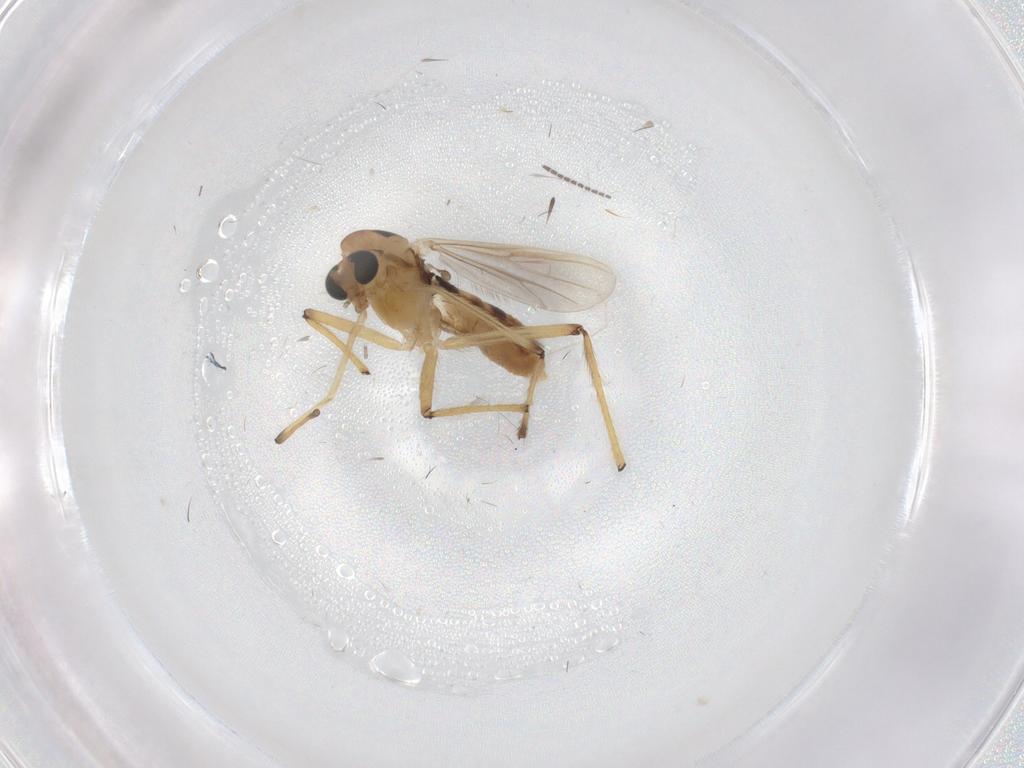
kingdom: Animalia
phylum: Arthropoda
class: Insecta
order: Diptera
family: Chironomidae
